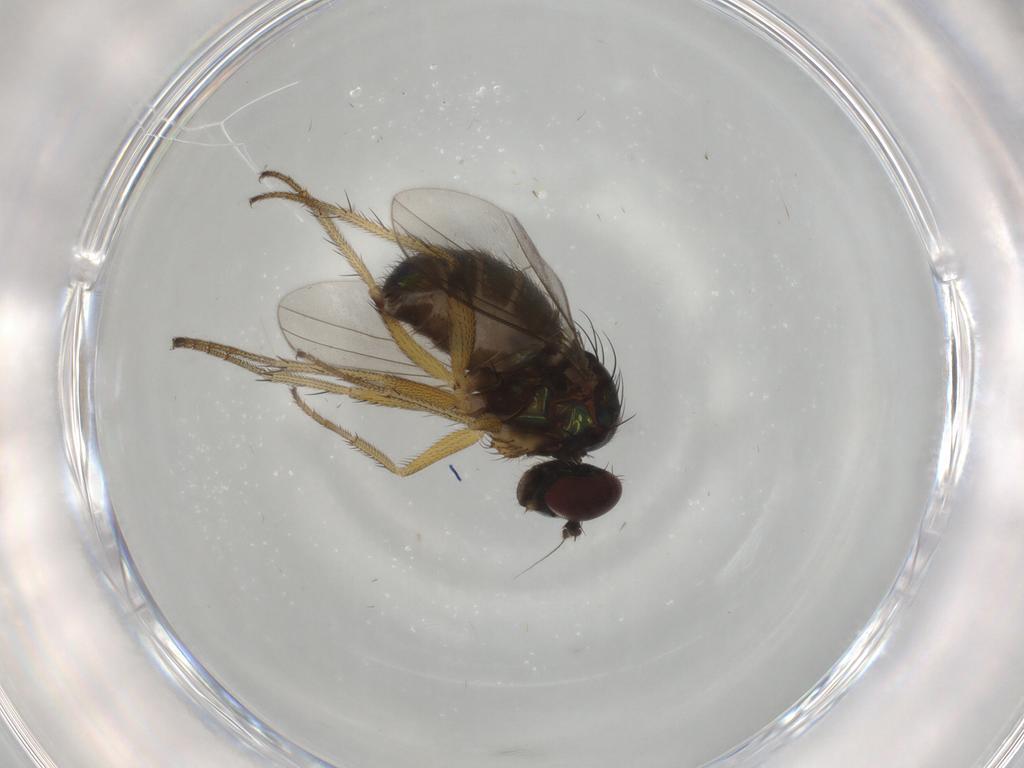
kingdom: Animalia
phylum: Arthropoda
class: Insecta
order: Diptera
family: Dolichopodidae
